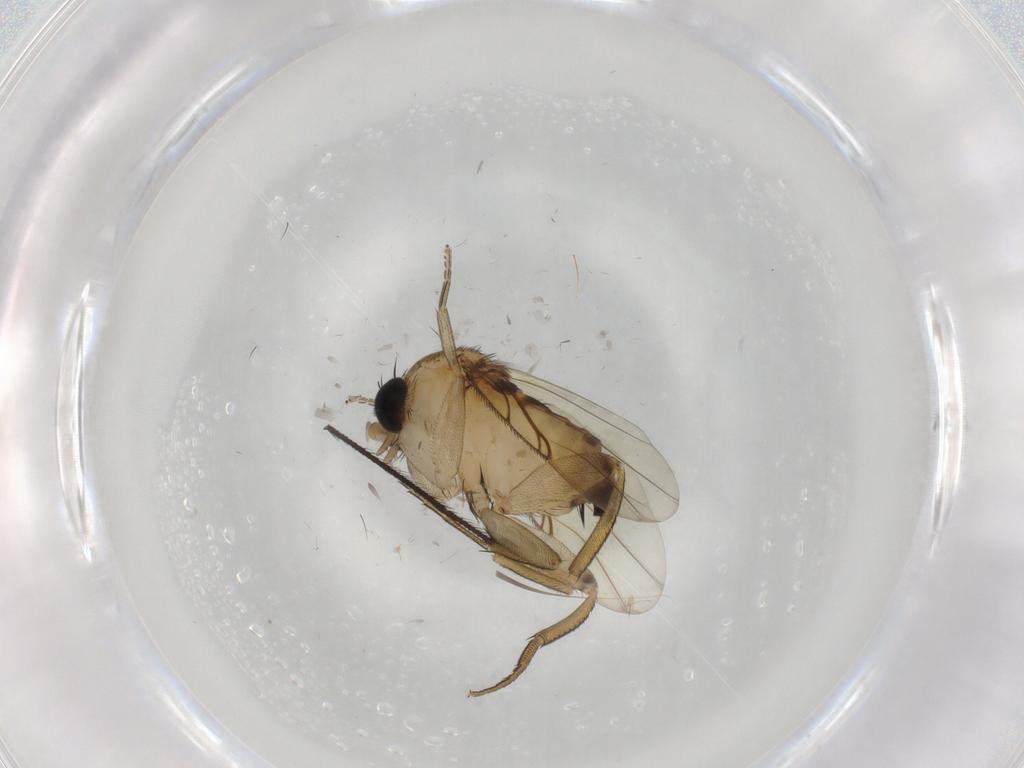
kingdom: Animalia
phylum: Arthropoda
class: Insecta
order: Diptera
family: Phoridae
